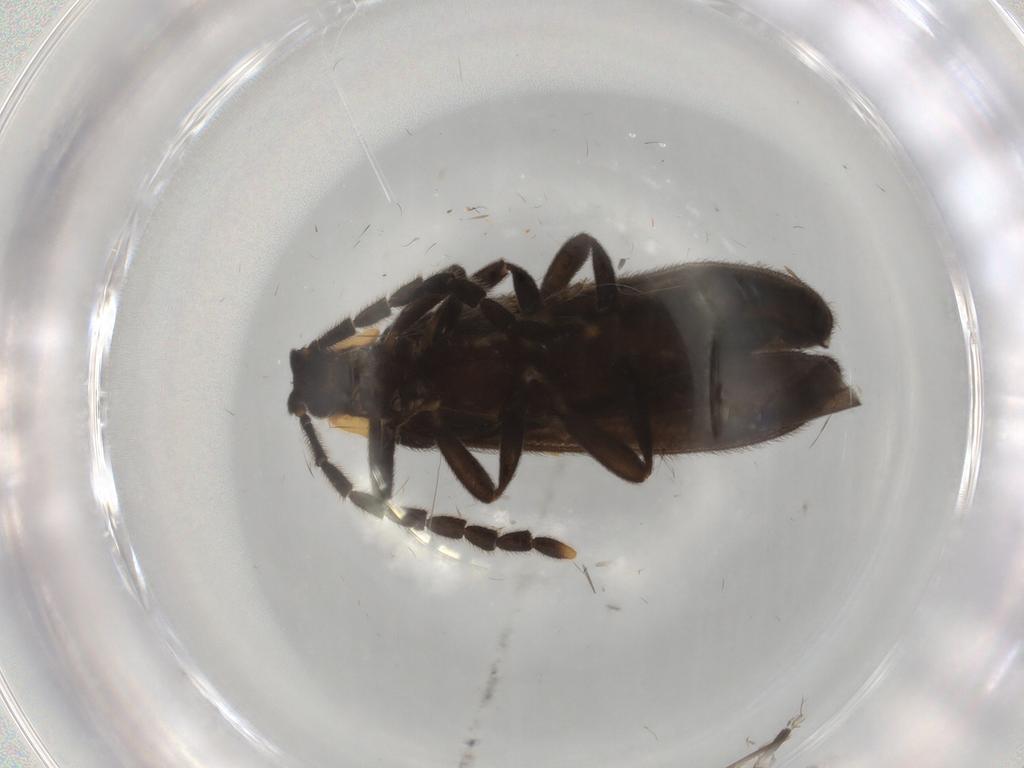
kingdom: Animalia
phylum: Arthropoda
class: Insecta
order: Coleoptera
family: Lycidae
